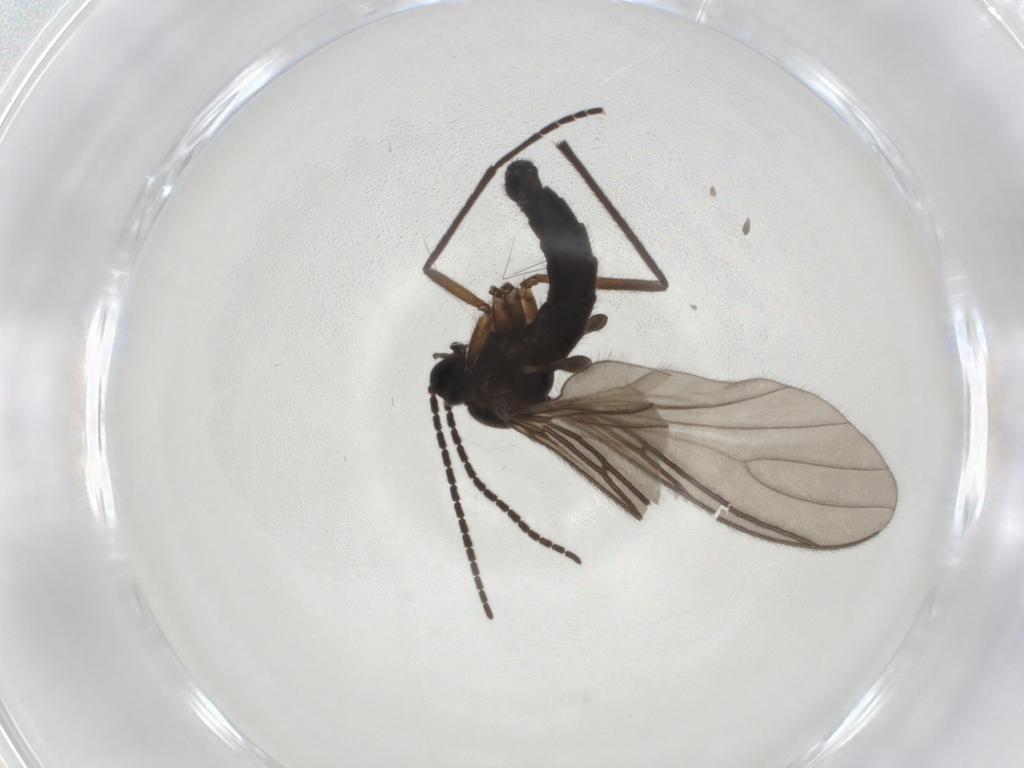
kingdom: Animalia
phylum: Arthropoda
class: Insecta
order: Diptera
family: Sciaridae
